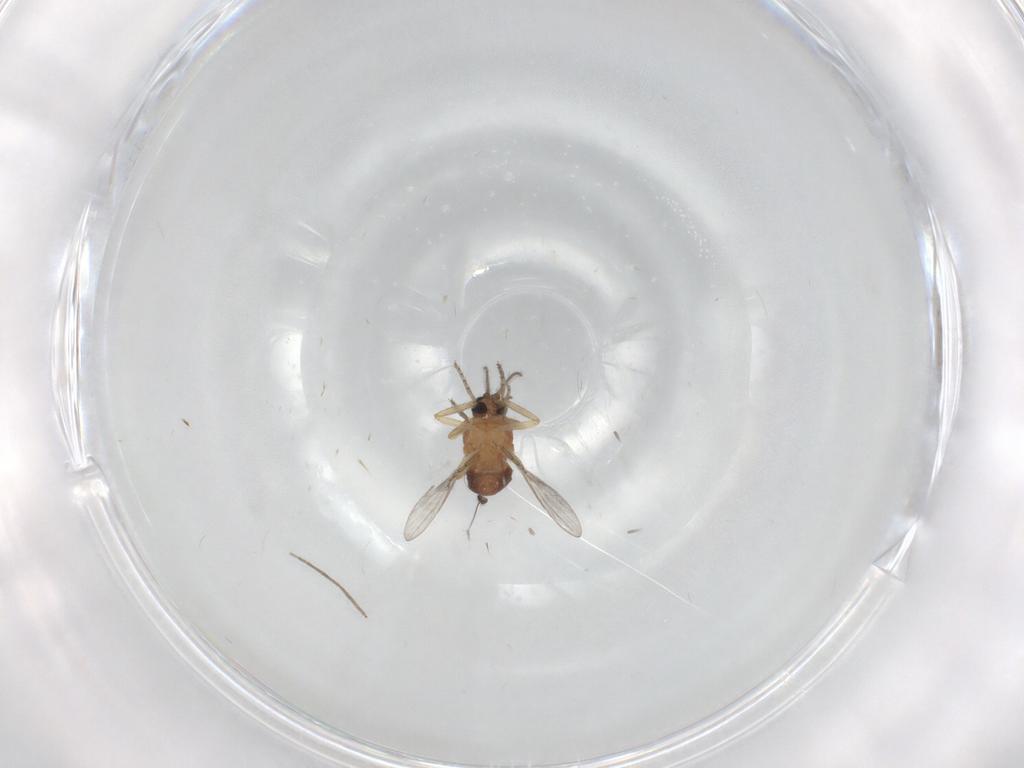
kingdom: Animalia
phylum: Arthropoda
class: Insecta
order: Diptera
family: Ceratopogonidae
